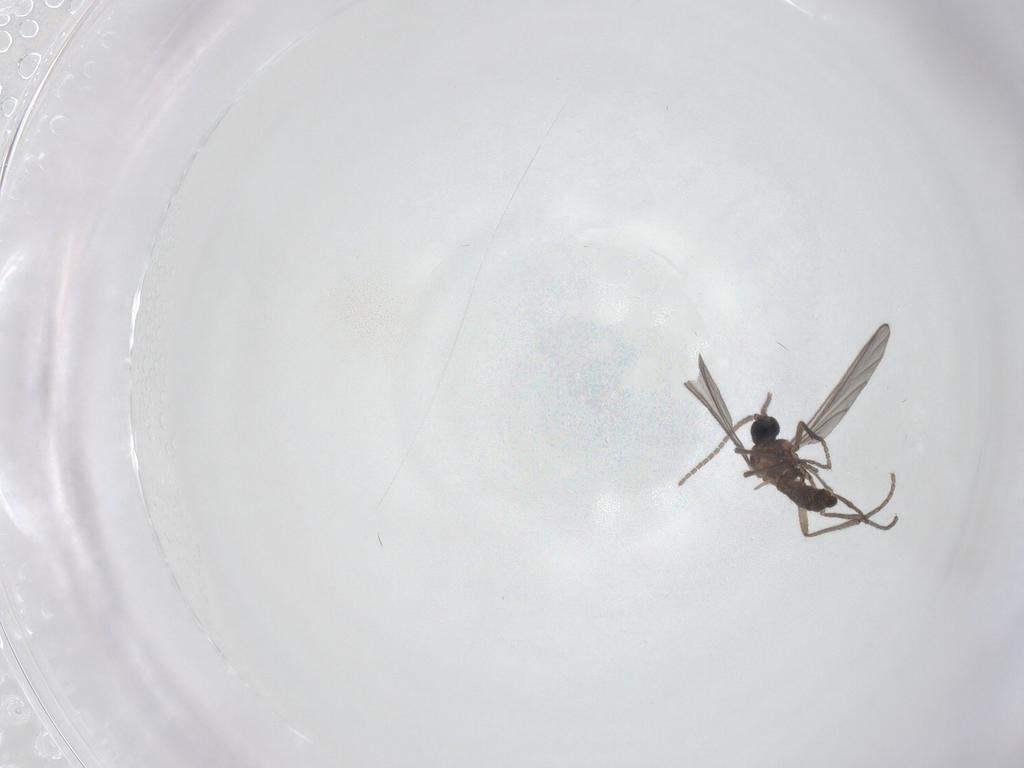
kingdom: Animalia
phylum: Arthropoda
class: Insecta
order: Diptera
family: Sciaridae
